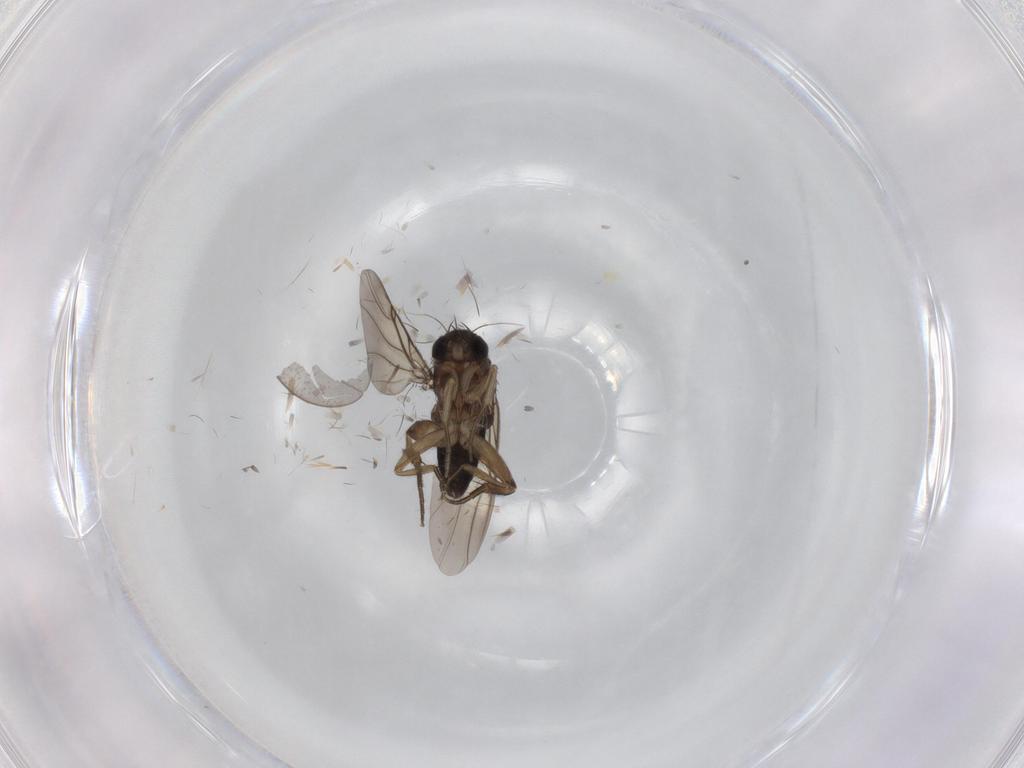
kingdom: Animalia
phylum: Arthropoda
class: Insecta
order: Diptera
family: Phoridae
